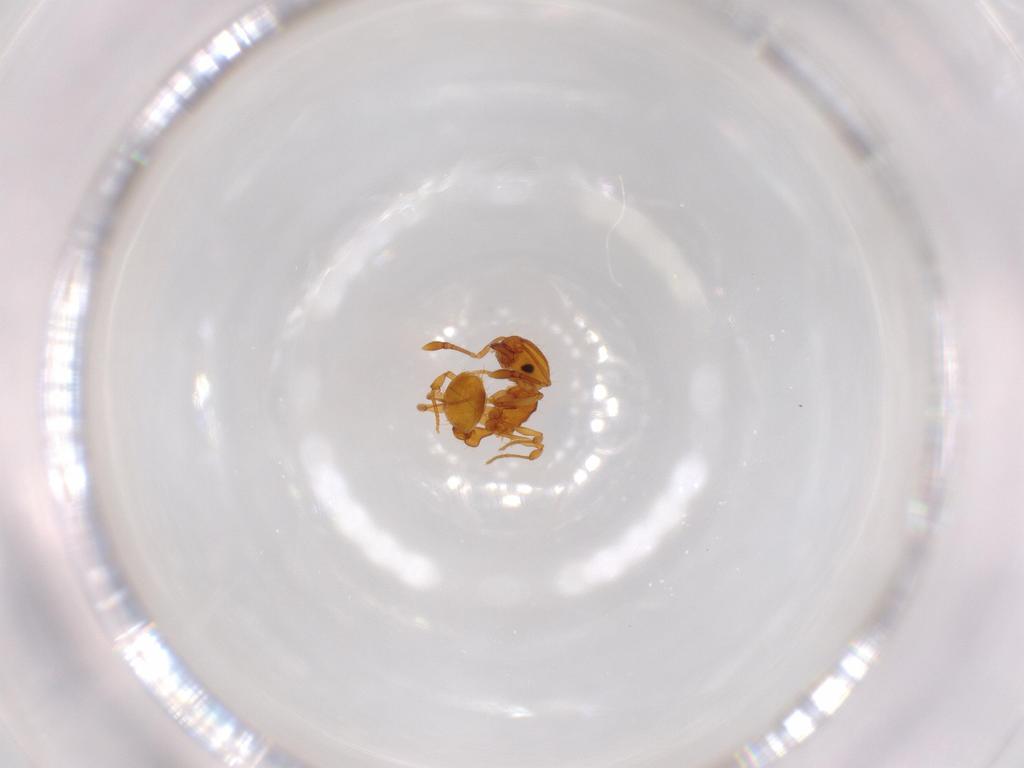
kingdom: Animalia
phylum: Arthropoda
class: Insecta
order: Hymenoptera
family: Formicidae
